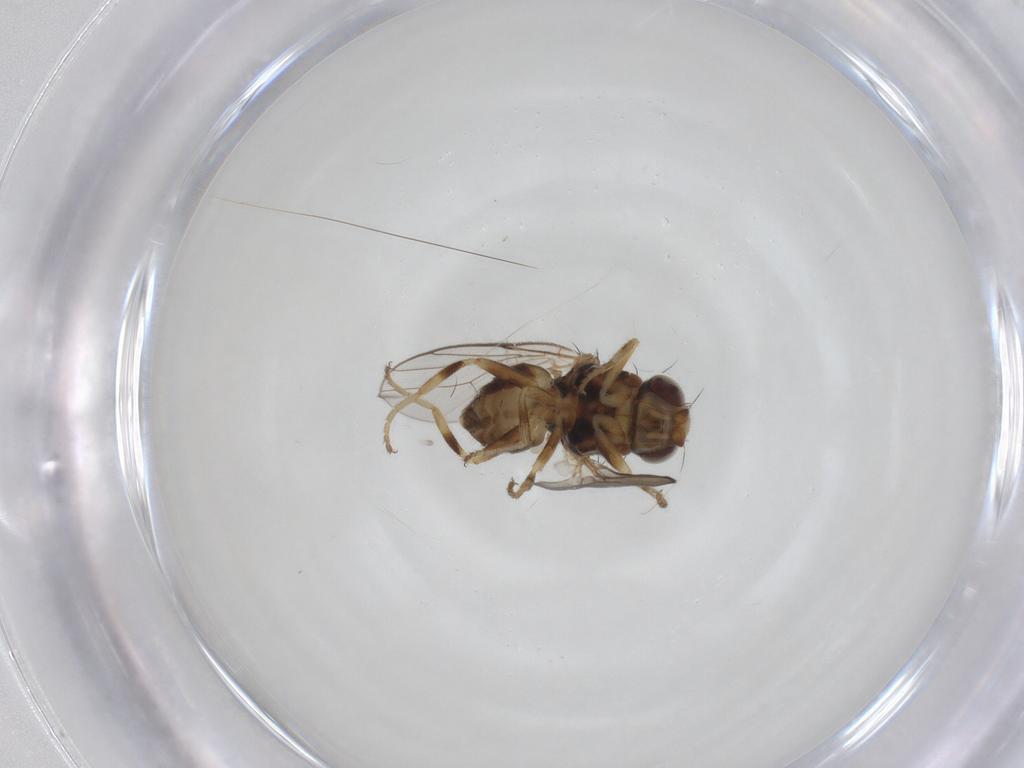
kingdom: Animalia
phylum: Arthropoda
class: Insecta
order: Diptera
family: Chloropidae
